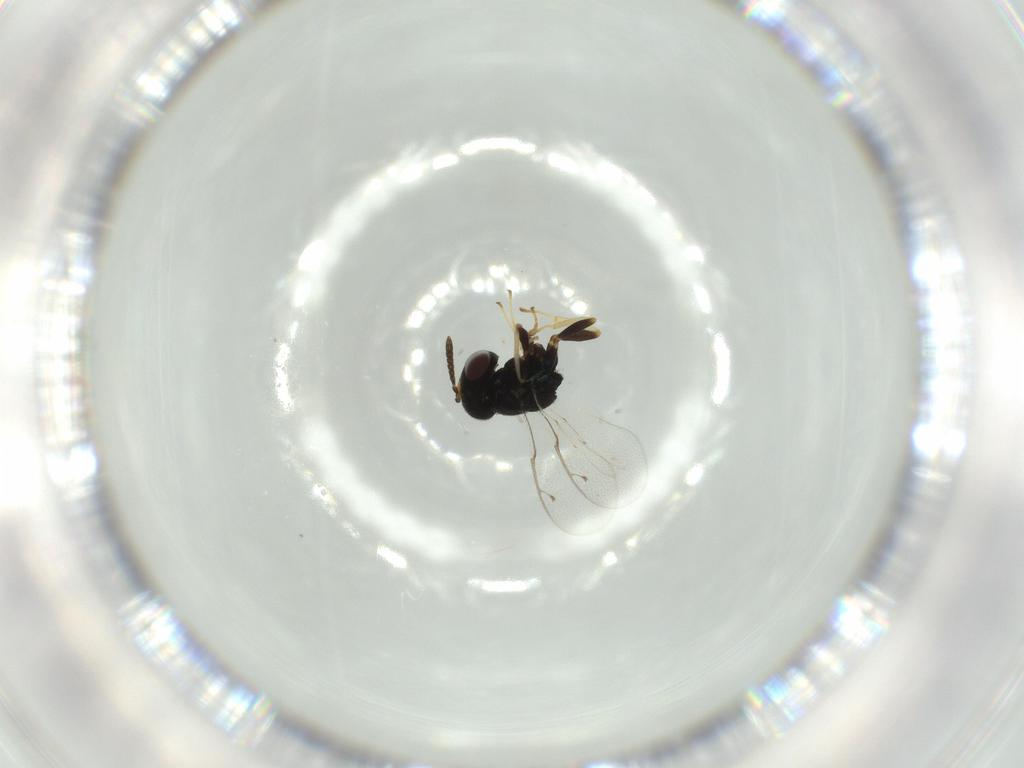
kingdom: Animalia
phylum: Arthropoda
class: Insecta
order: Hymenoptera
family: Pteromalidae
